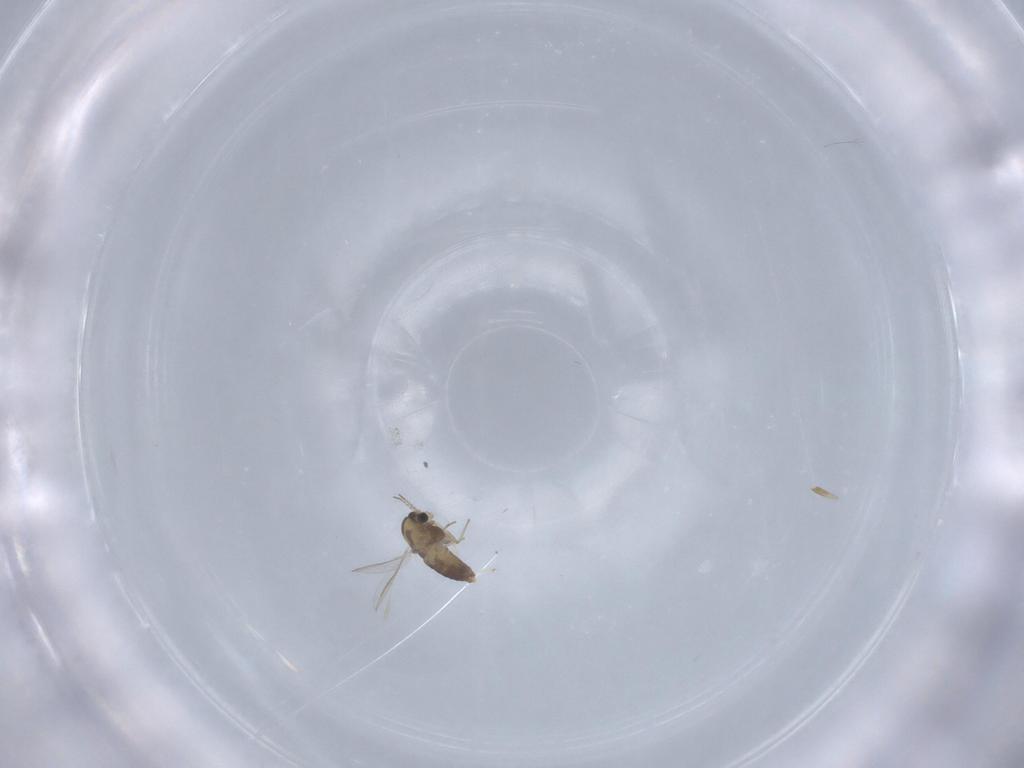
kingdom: Animalia
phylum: Arthropoda
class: Insecta
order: Diptera
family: Chironomidae
